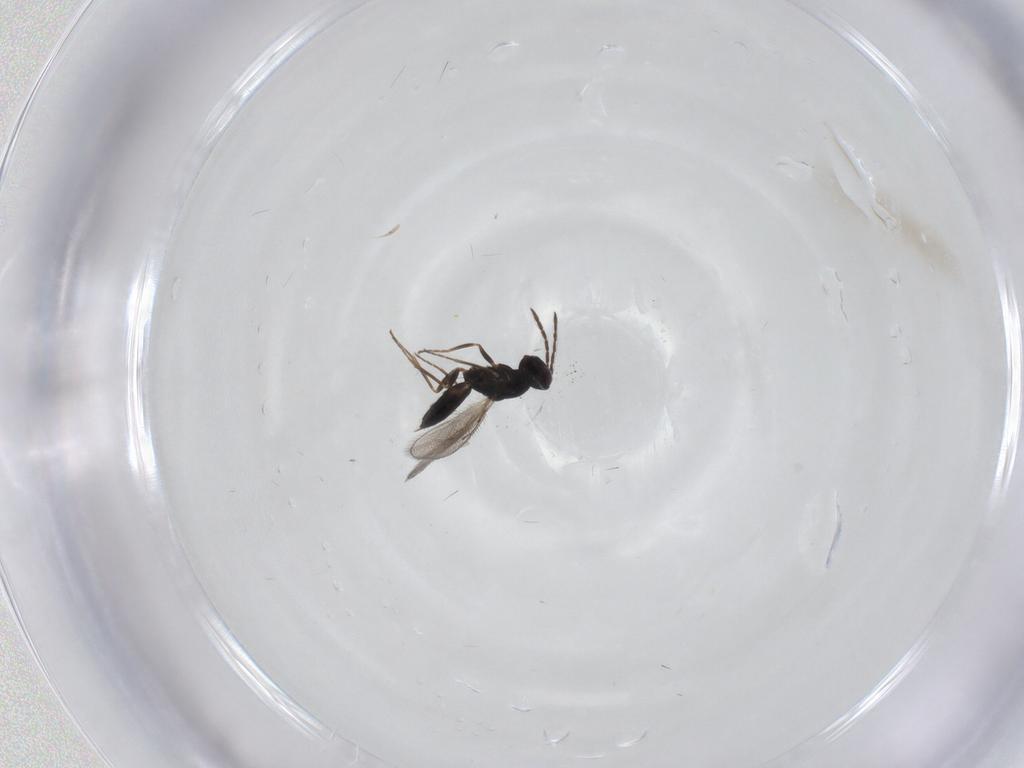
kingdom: Animalia
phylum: Arthropoda
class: Insecta
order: Hymenoptera
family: Eulophidae
